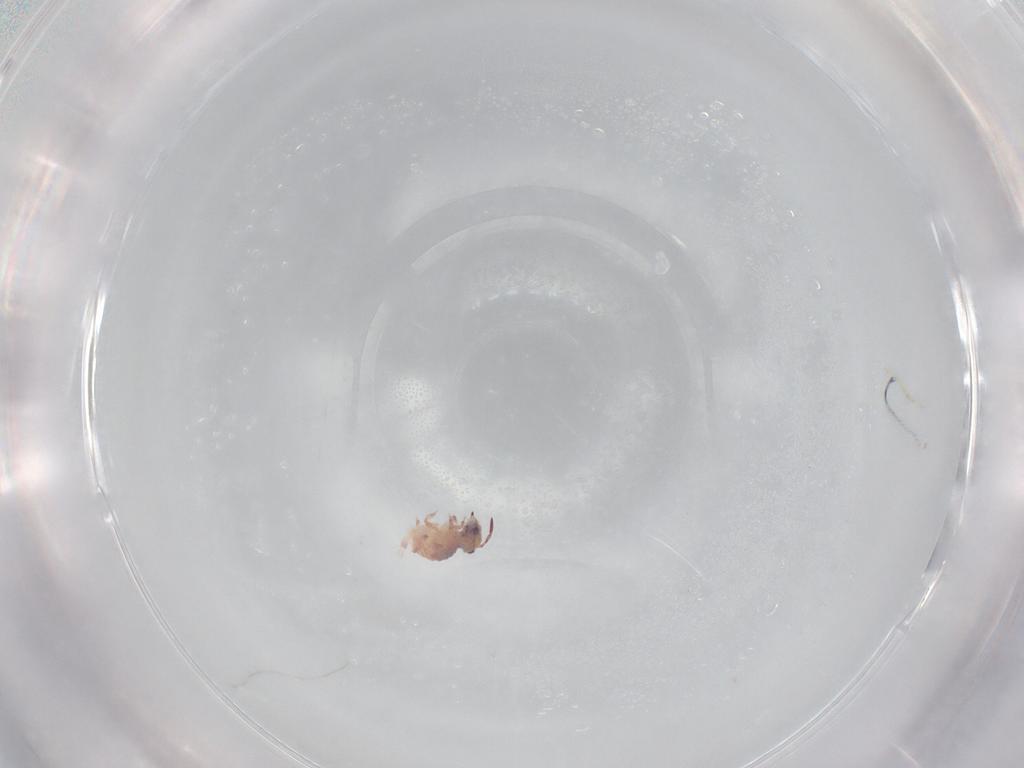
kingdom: Animalia
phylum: Arthropoda
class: Collembola
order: Symphypleona
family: Sminthurididae
